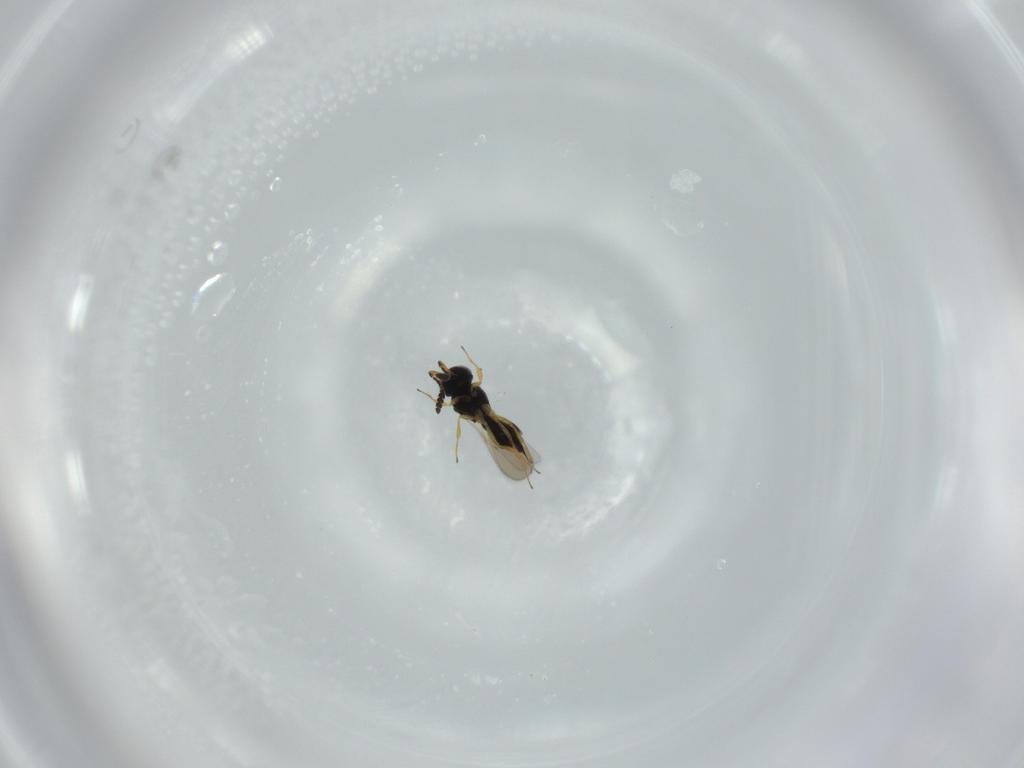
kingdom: Animalia
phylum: Arthropoda
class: Insecta
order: Hymenoptera
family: Scelionidae
